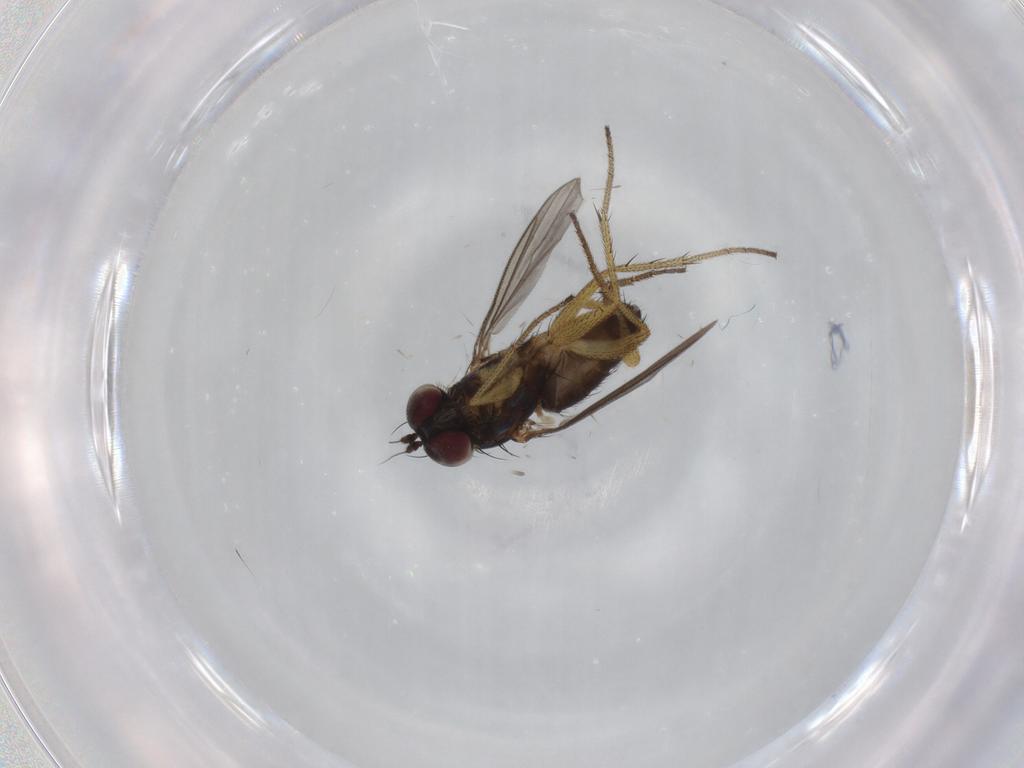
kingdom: Animalia
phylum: Arthropoda
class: Insecta
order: Diptera
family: Dolichopodidae
